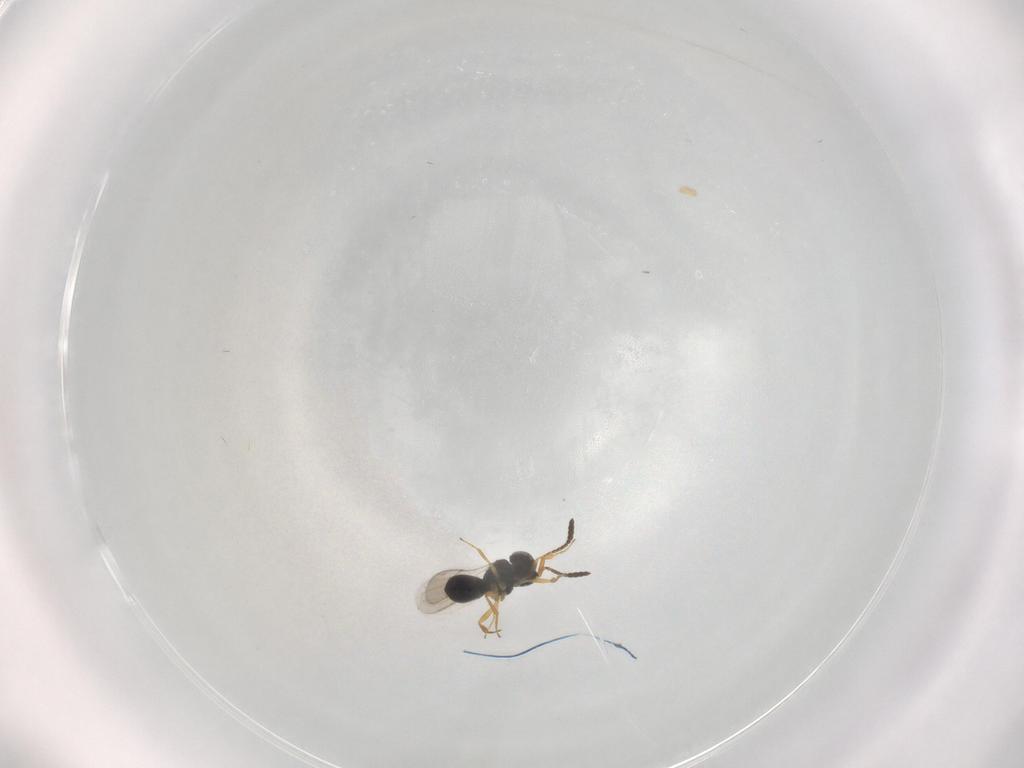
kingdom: Animalia
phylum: Arthropoda
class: Insecta
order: Hymenoptera
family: Scelionidae
